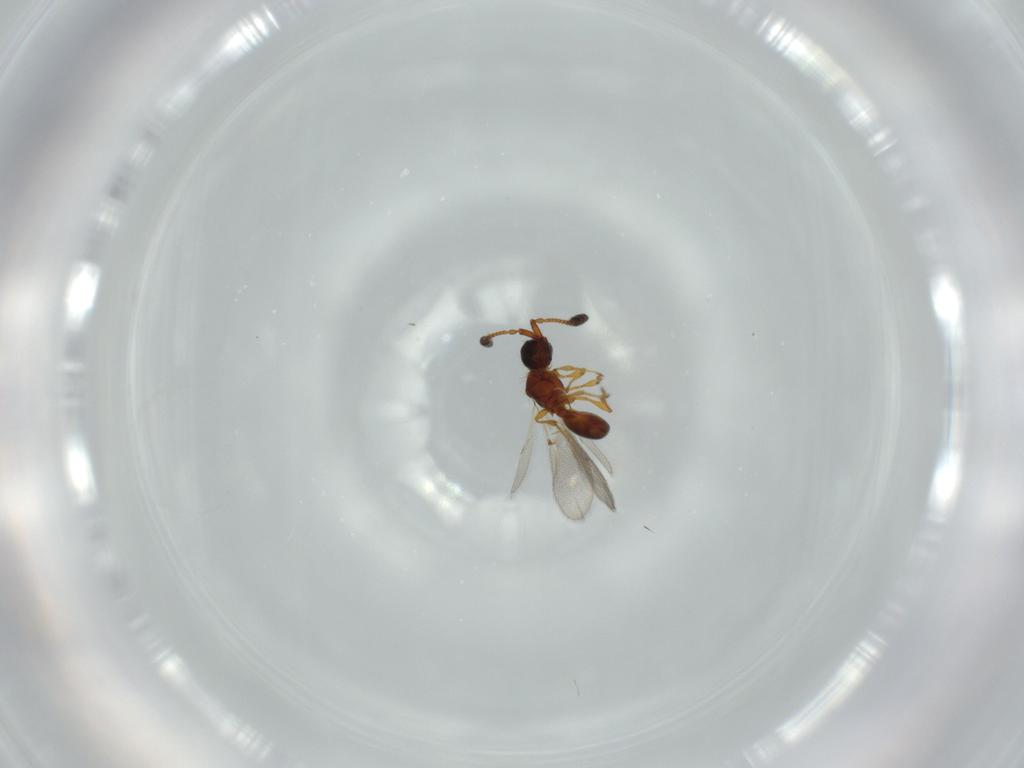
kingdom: Animalia
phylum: Arthropoda
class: Insecta
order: Hymenoptera
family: Diapriidae
